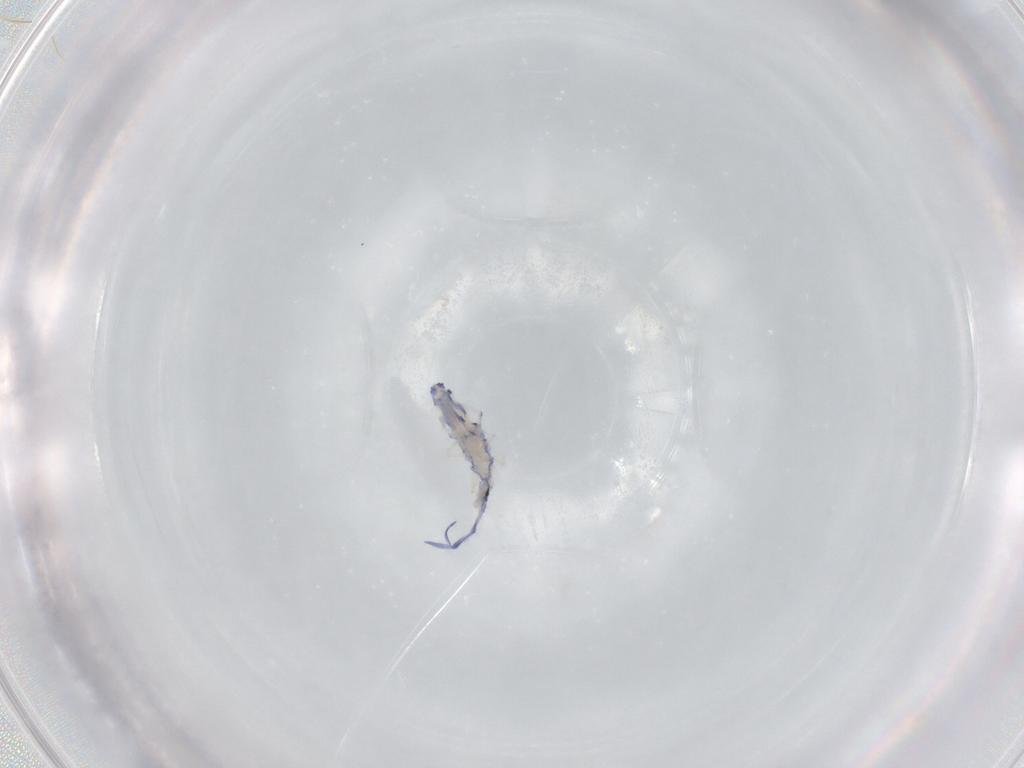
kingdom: Animalia
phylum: Arthropoda
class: Collembola
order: Entomobryomorpha
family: Entomobryidae
